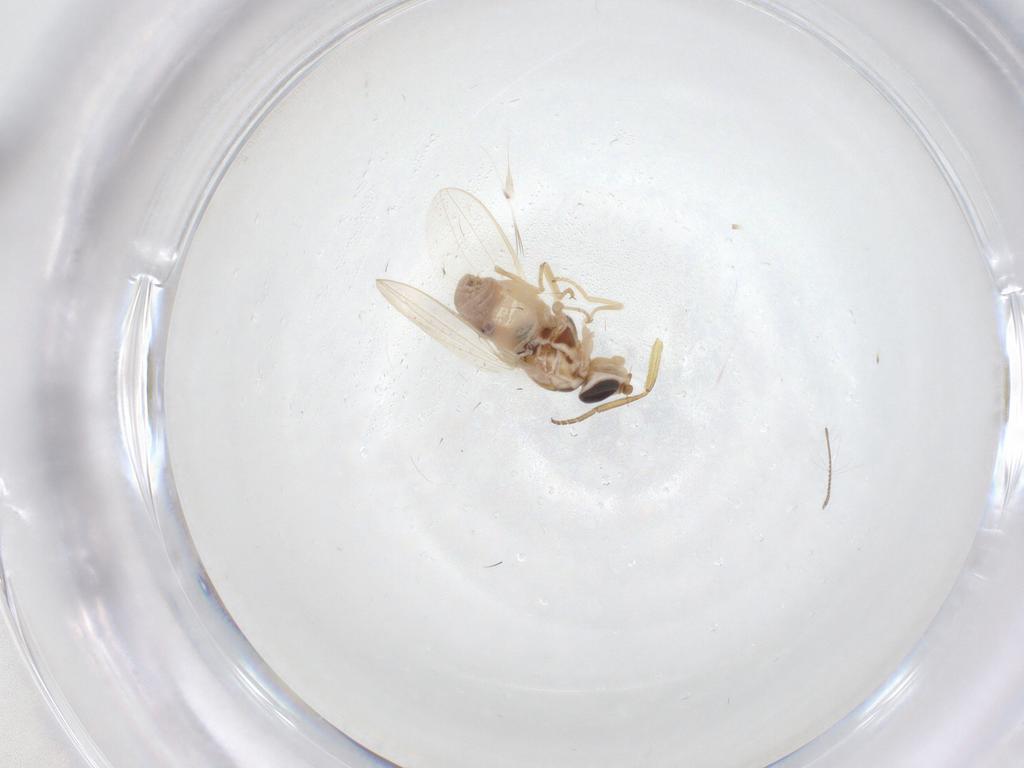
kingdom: Animalia
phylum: Arthropoda
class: Insecta
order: Diptera
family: Chloropidae
